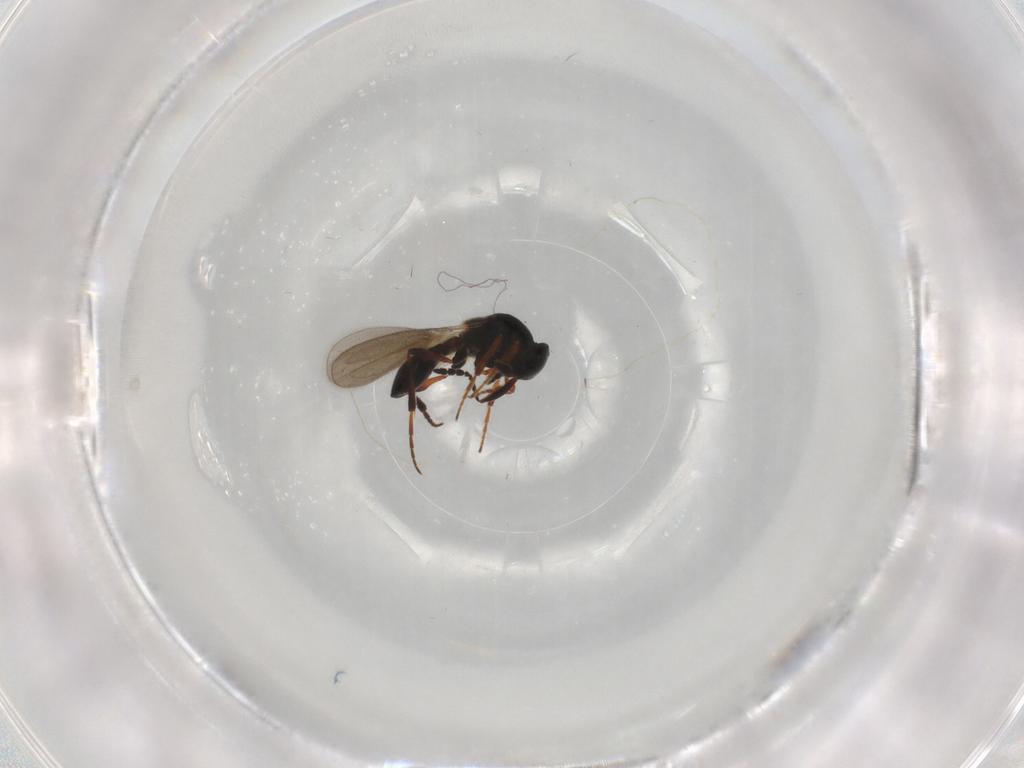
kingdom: Animalia
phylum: Arthropoda
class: Insecta
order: Hymenoptera
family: Platygastridae
